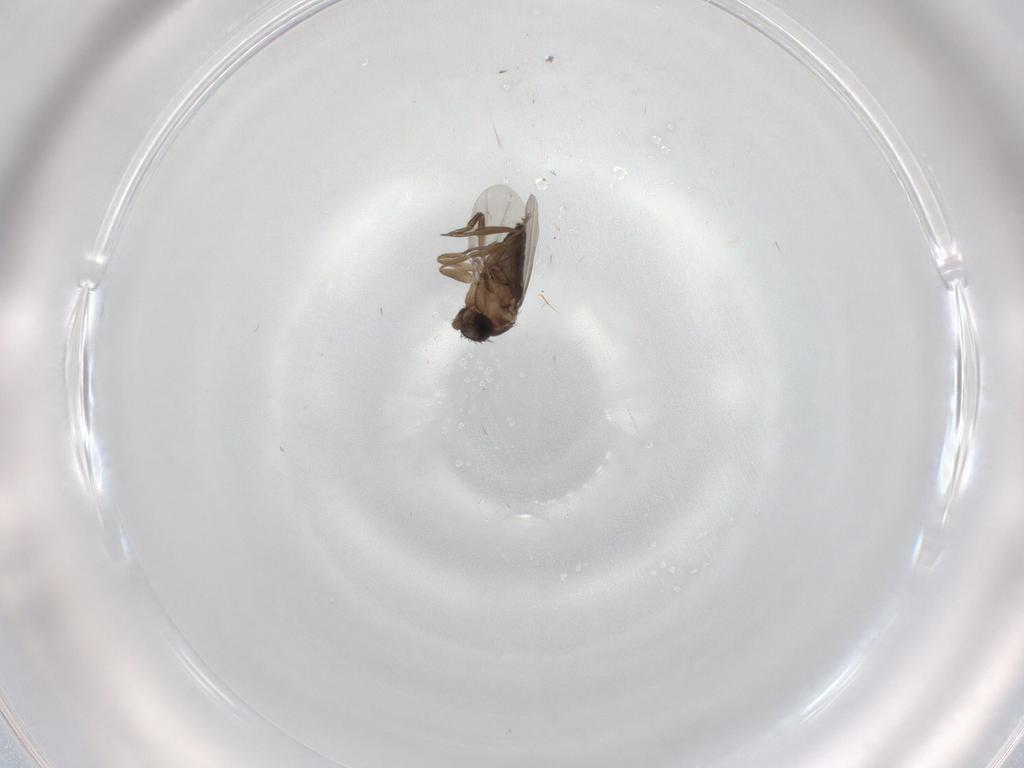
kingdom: Animalia
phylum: Arthropoda
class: Insecta
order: Diptera
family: Phoridae
